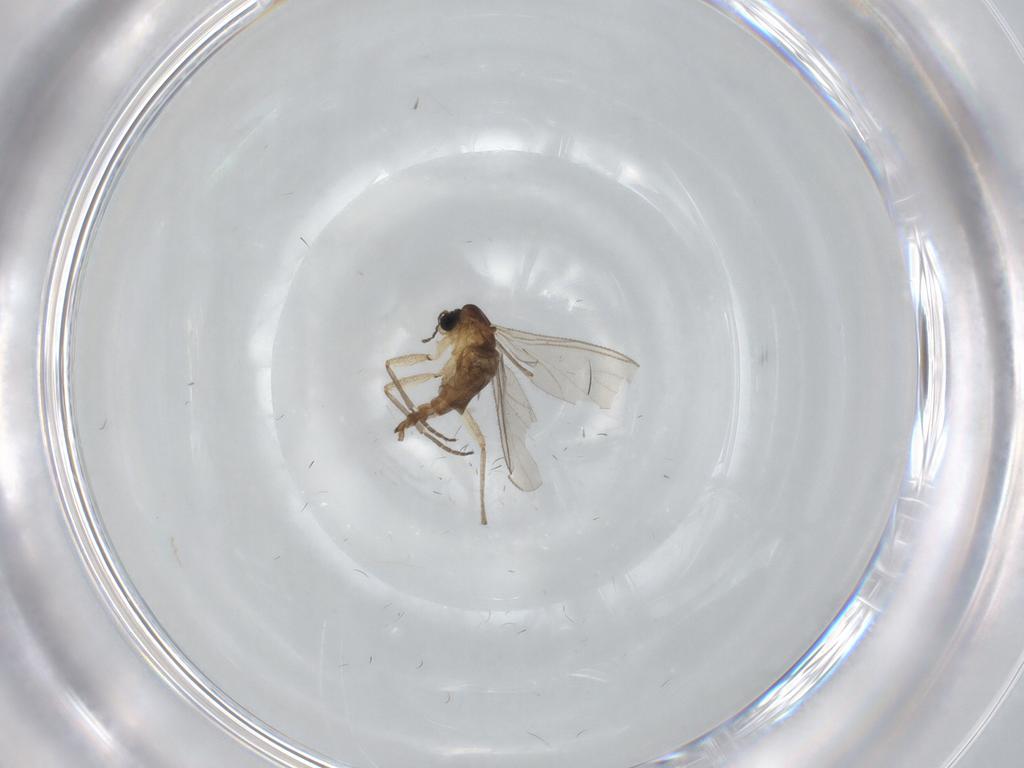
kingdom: Animalia
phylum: Arthropoda
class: Insecta
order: Diptera
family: Sciaridae
